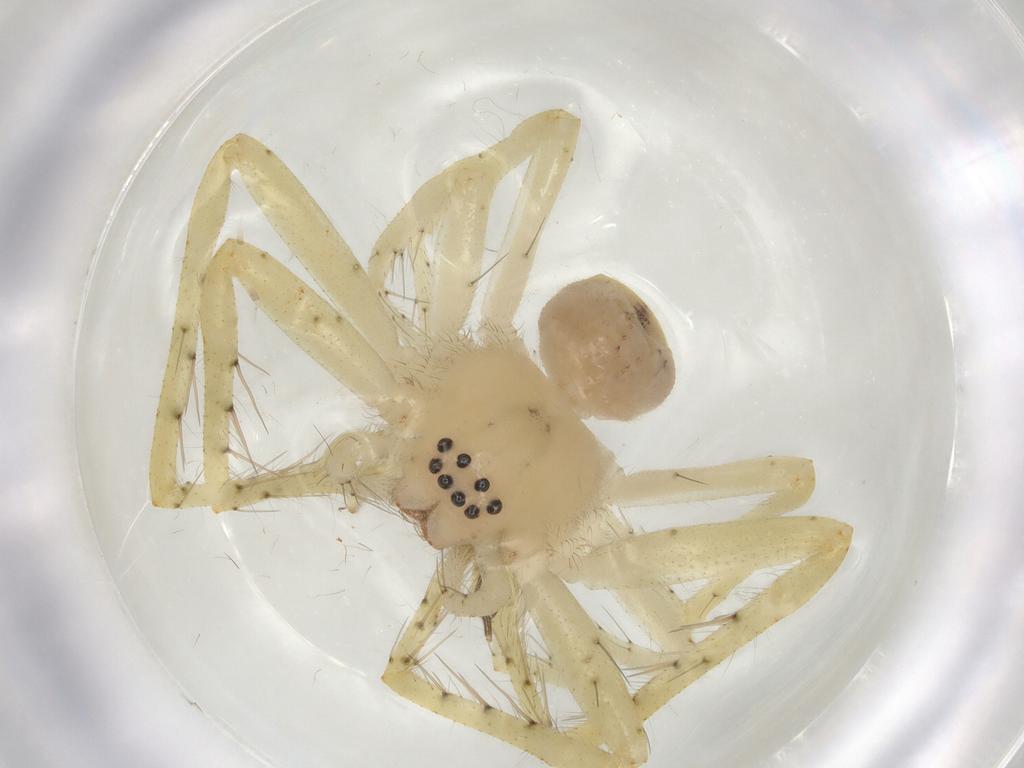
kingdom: Animalia
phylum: Arthropoda
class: Arachnida
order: Araneae
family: Sparassidae
